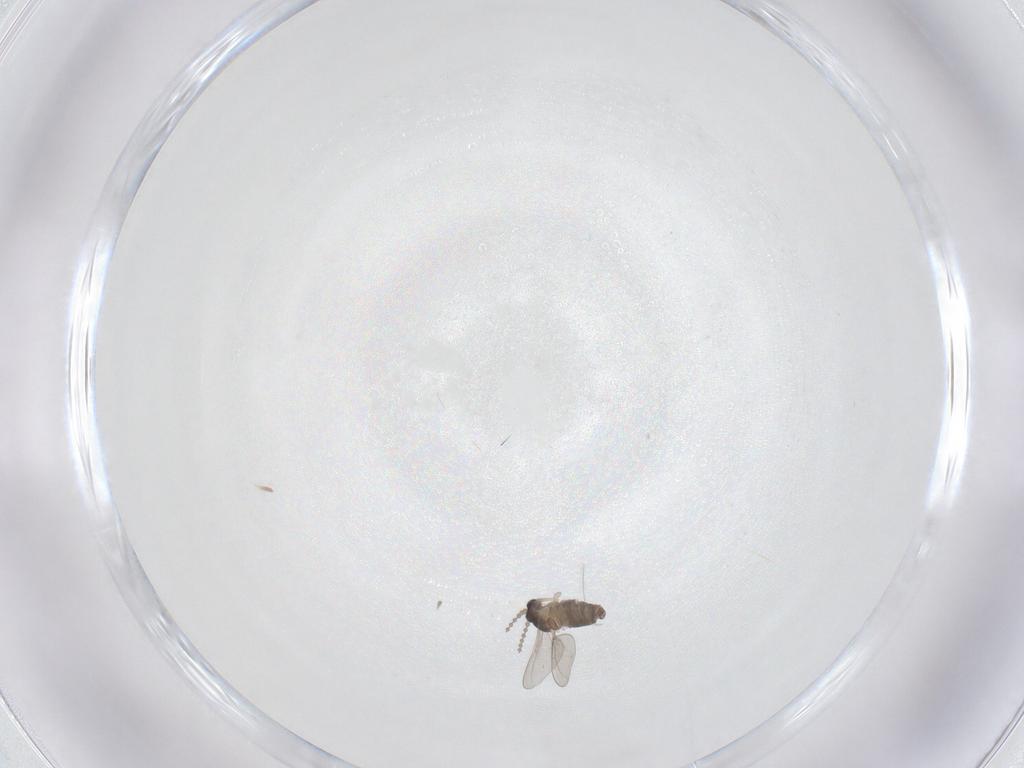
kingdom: Animalia
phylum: Arthropoda
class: Insecta
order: Diptera
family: Cecidomyiidae
